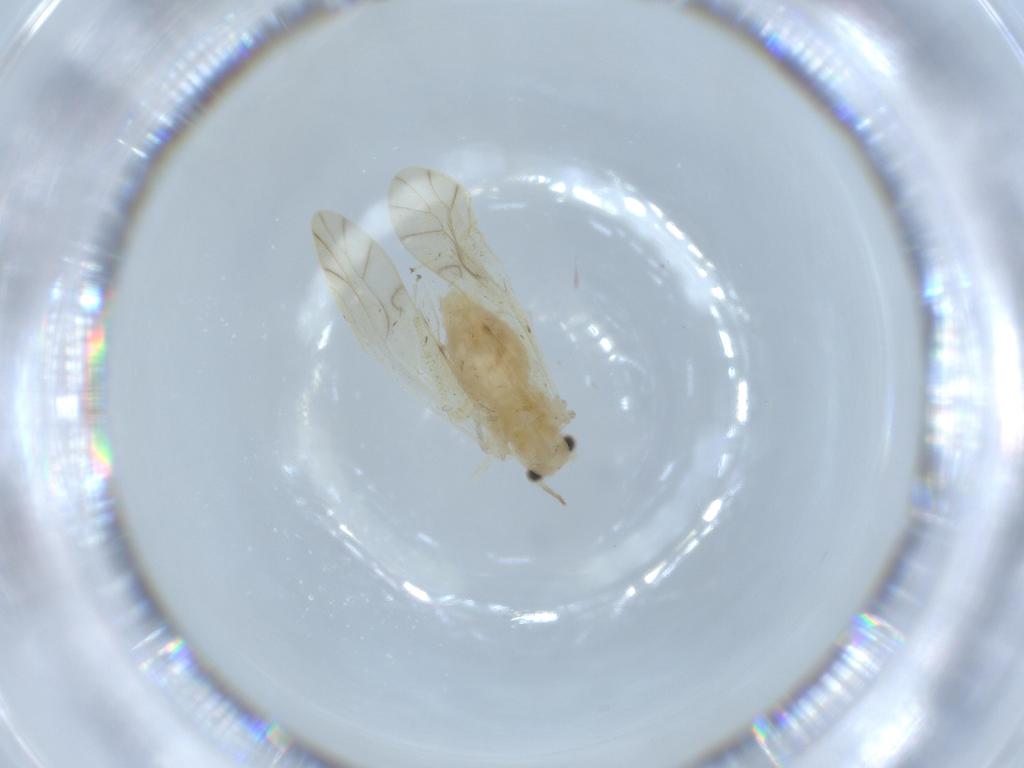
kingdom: Animalia
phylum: Arthropoda
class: Insecta
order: Psocodea
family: Caeciliusidae
